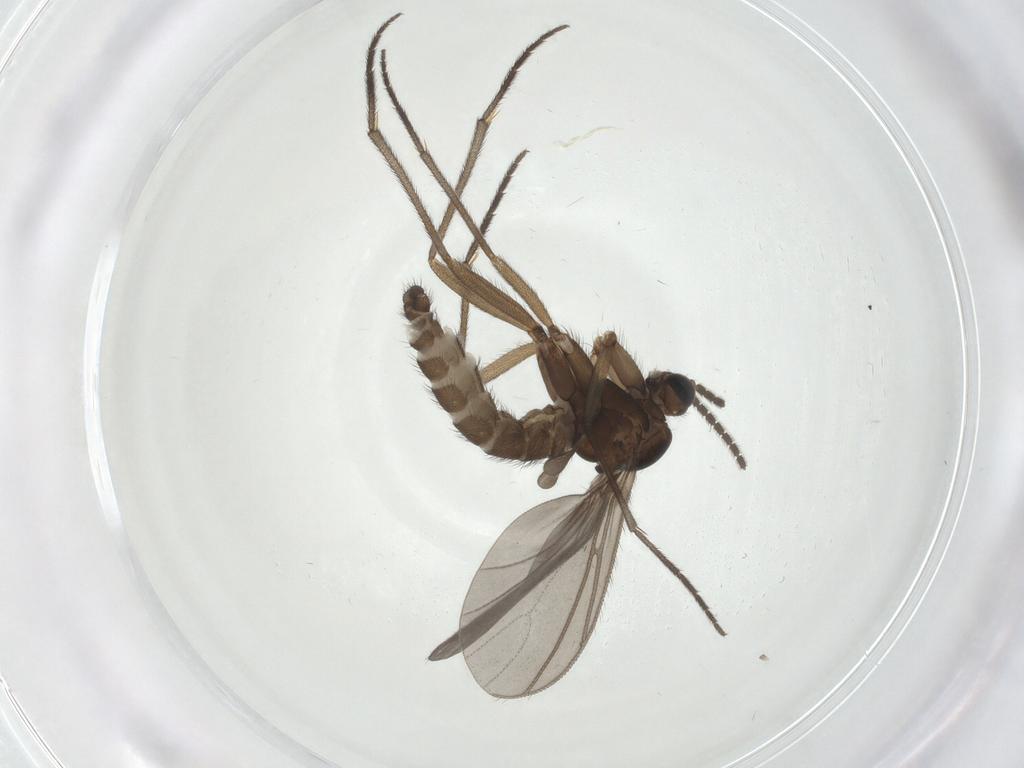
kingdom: Animalia
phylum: Arthropoda
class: Insecta
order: Diptera
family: Sciaridae
